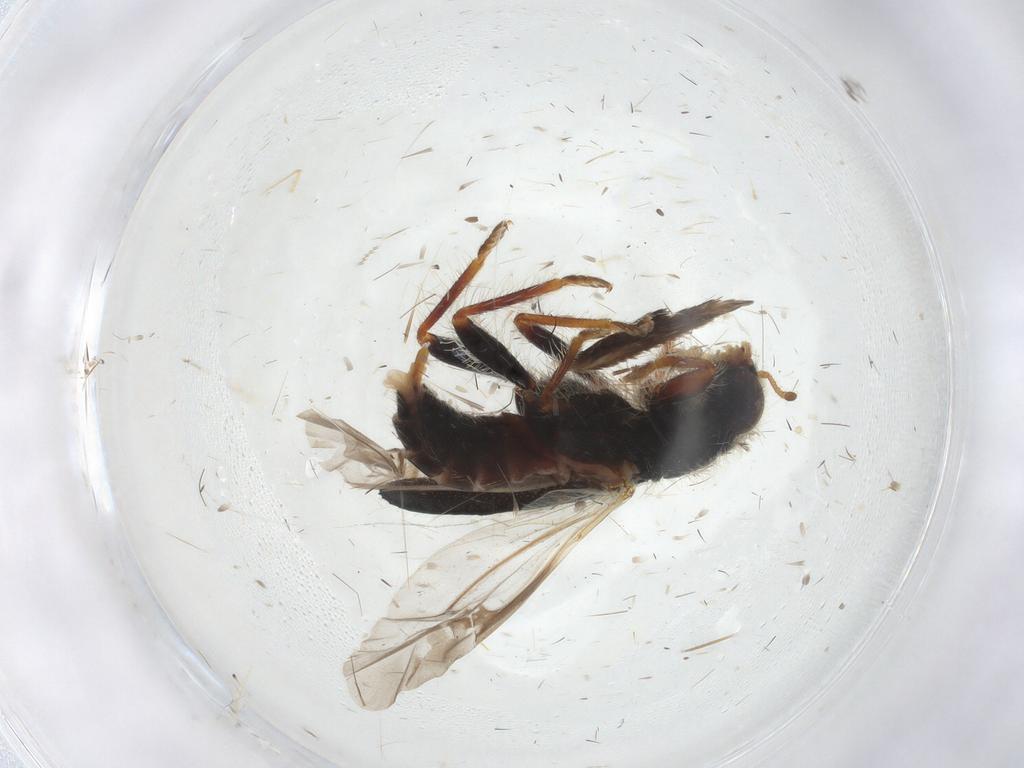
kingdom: Animalia
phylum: Arthropoda
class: Insecta
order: Coleoptera
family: Cleridae
